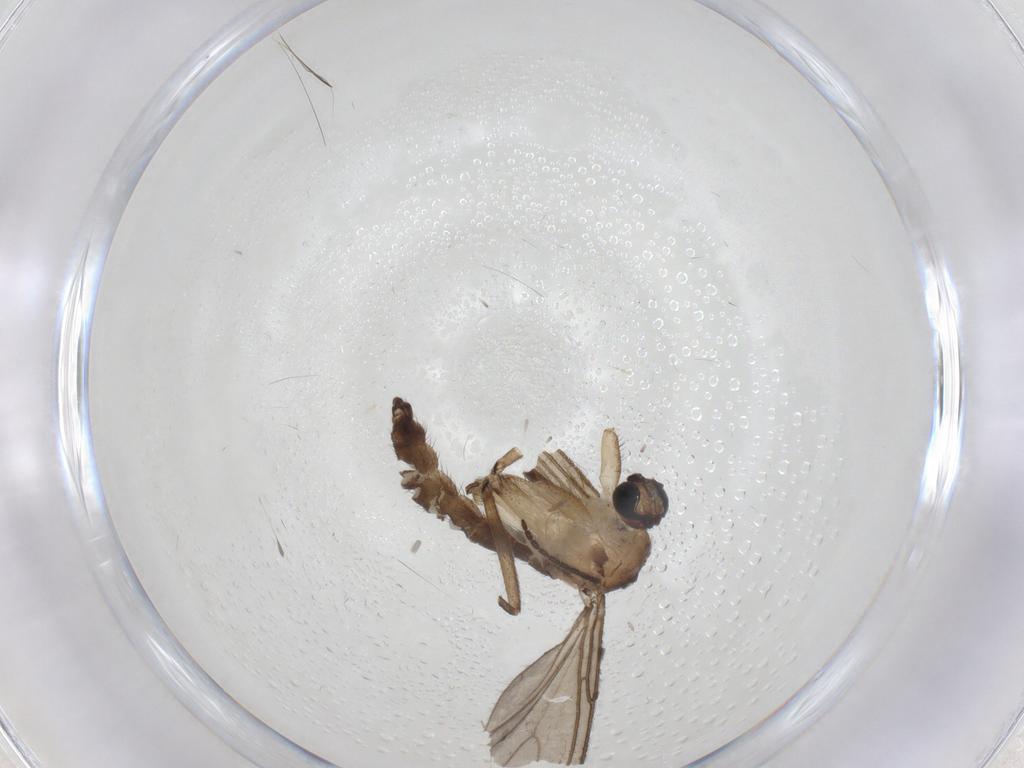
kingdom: Animalia
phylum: Arthropoda
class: Insecta
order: Diptera
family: Sciaridae
